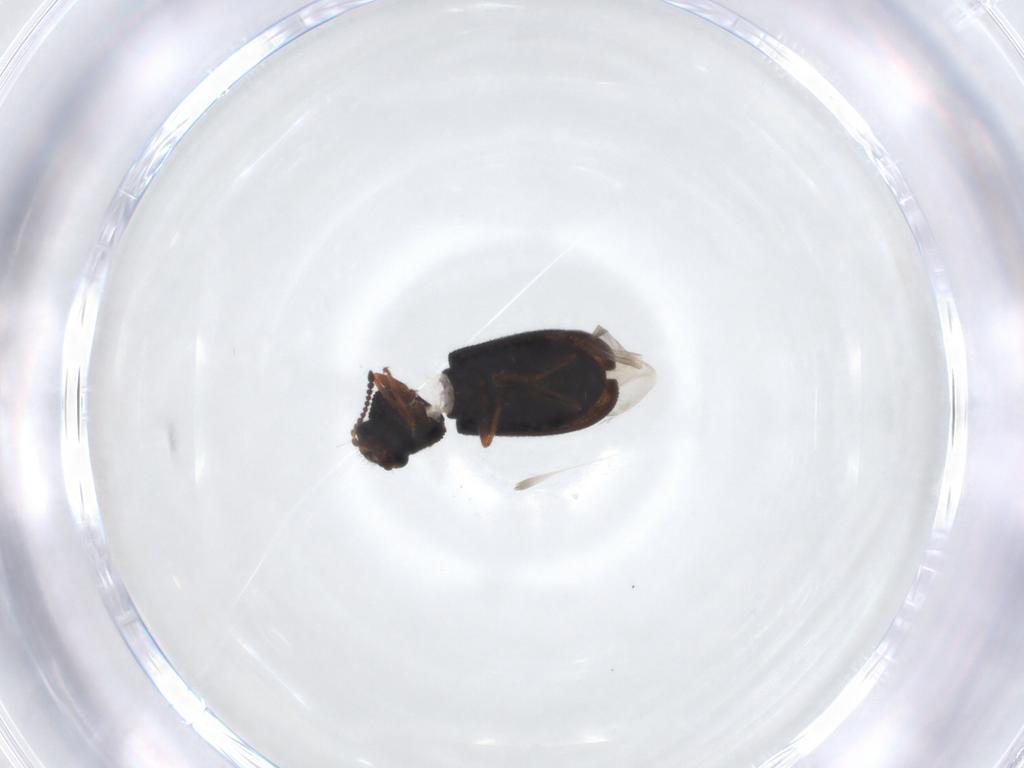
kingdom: Animalia
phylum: Arthropoda
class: Insecta
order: Coleoptera
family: Melyridae
